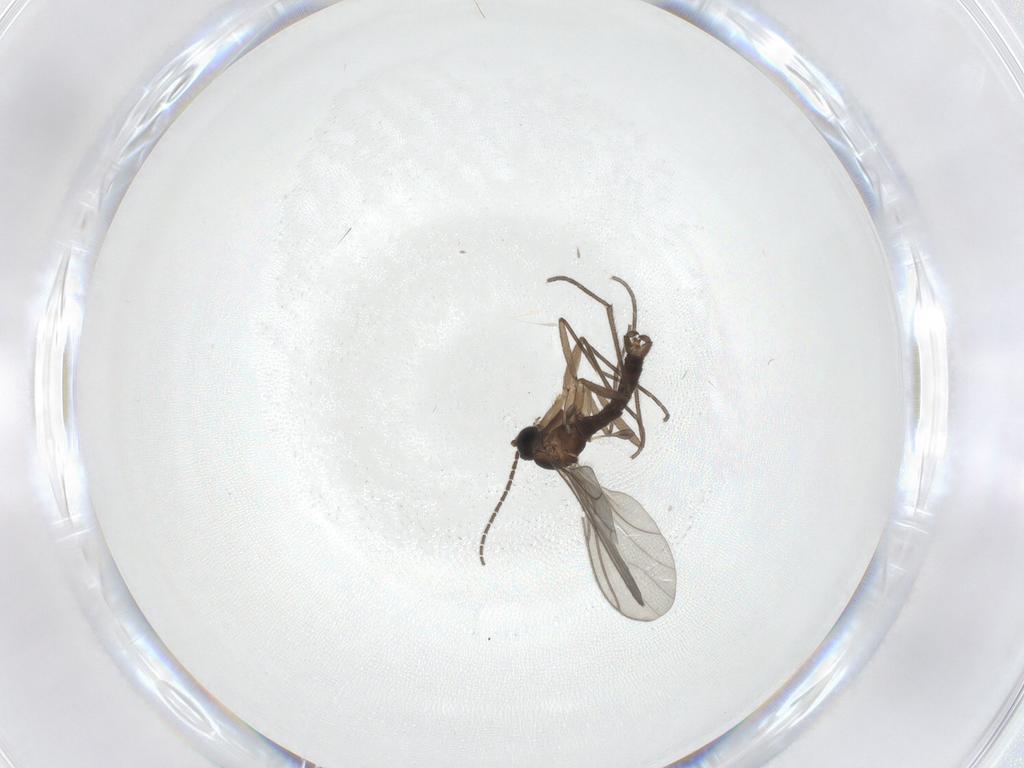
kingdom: Animalia
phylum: Arthropoda
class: Insecta
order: Diptera
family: Sciaridae
